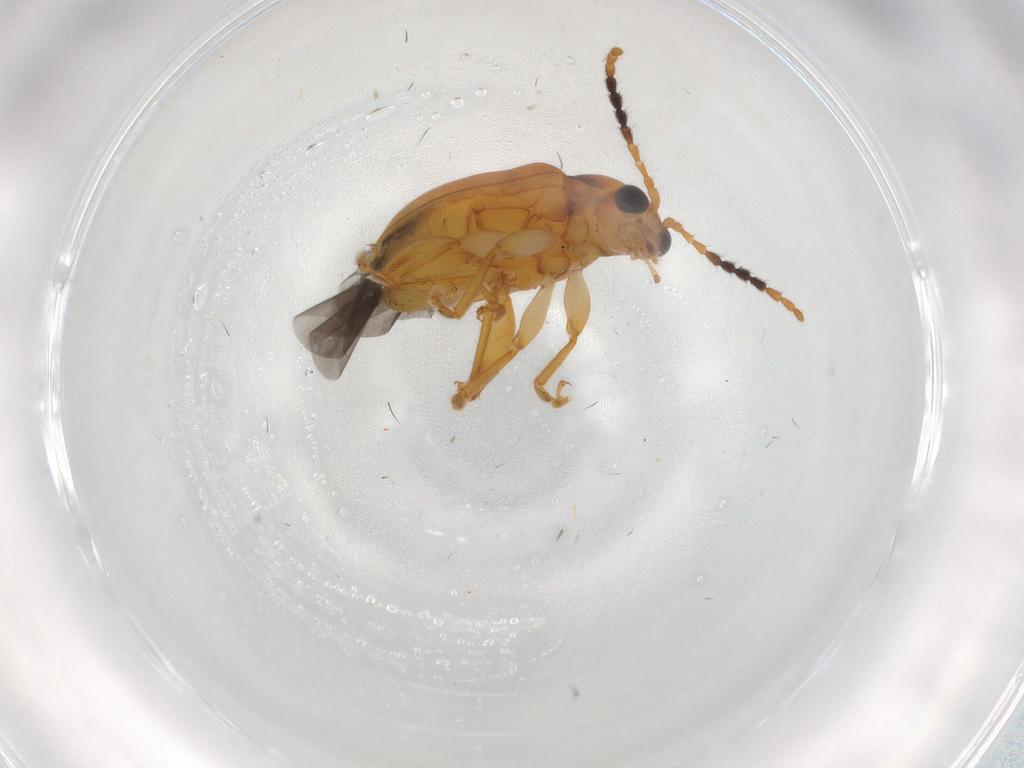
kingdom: Animalia
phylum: Arthropoda
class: Insecta
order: Coleoptera
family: Chrysomelidae
